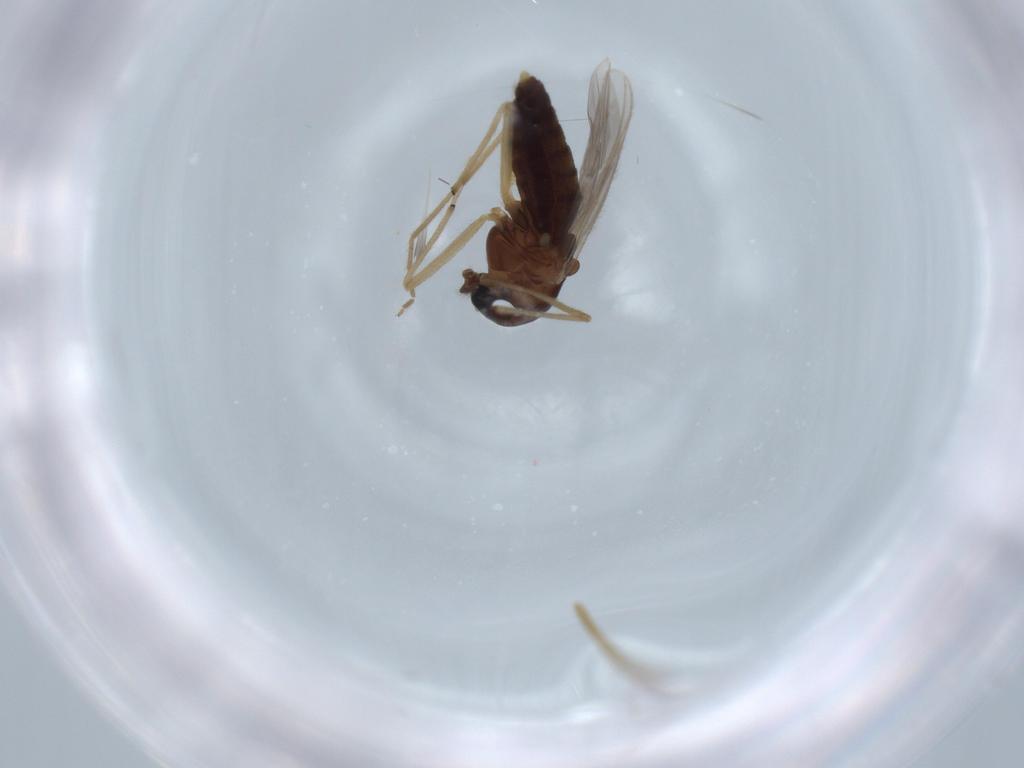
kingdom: Animalia
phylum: Arthropoda
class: Insecta
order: Diptera
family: Chironomidae
